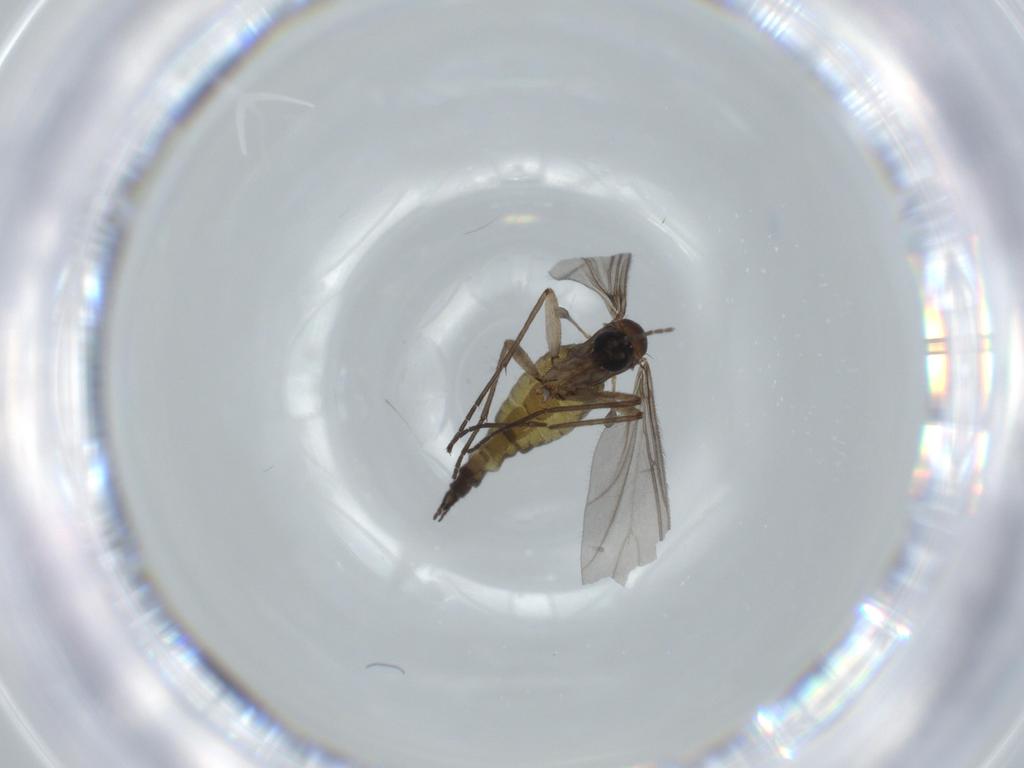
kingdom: Animalia
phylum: Arthropoda
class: Insecta
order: Diptera
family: Sciaridae
